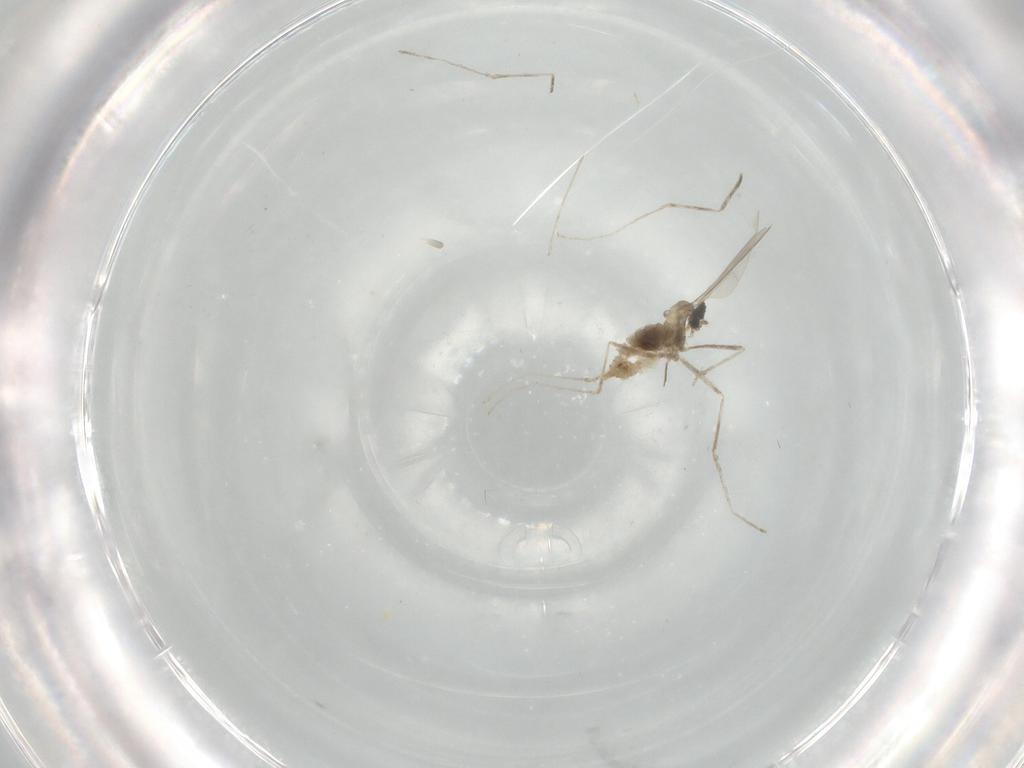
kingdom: Animalia
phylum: Arthropoda
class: Insecta
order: Diptera
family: Cecidomyiidae
